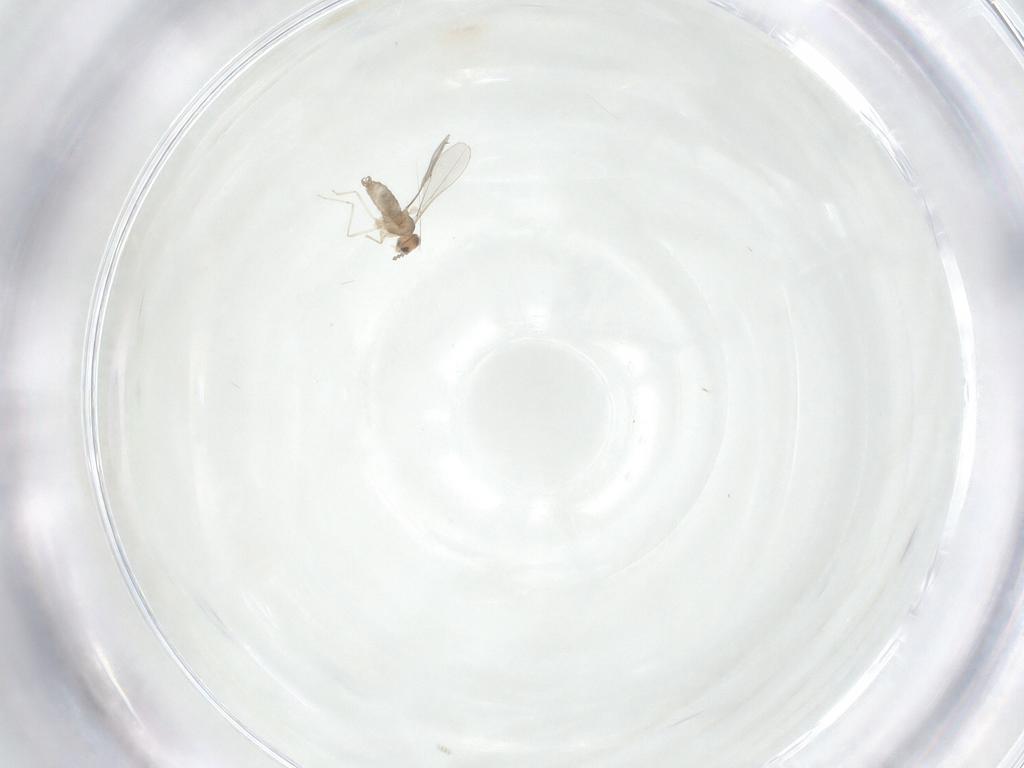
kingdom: Animalia
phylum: Arthropoda
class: Insecta
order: Diptera
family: Cecidomyiidae
